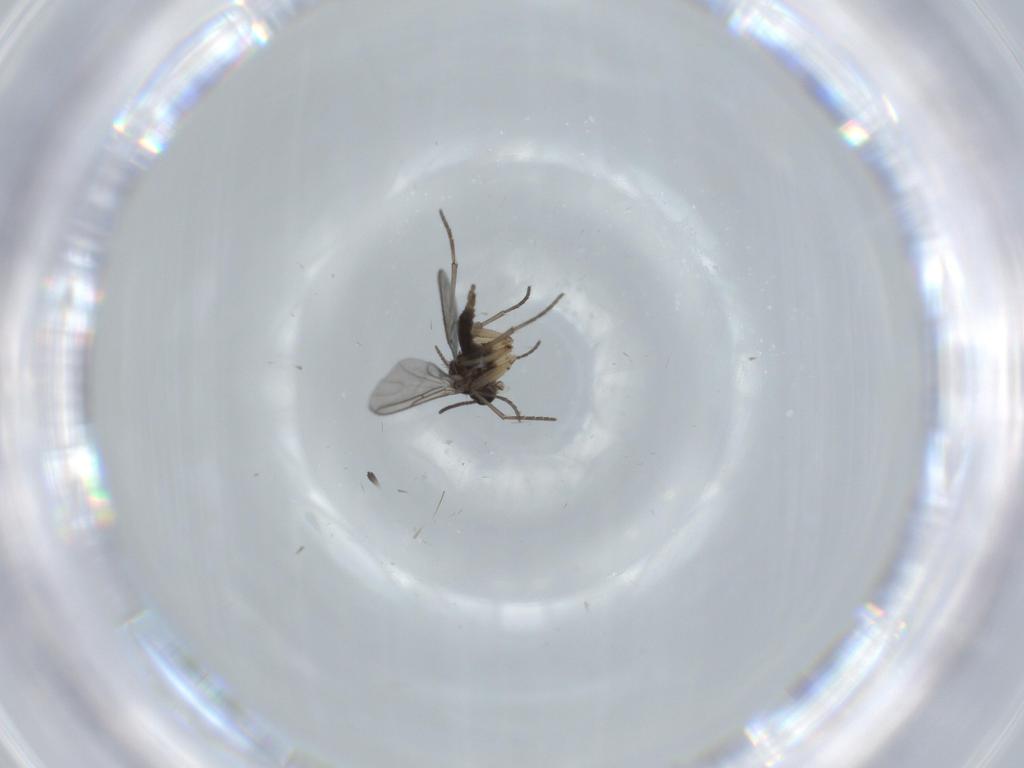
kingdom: Animalia
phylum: Arthropoda
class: Insecta
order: Diptera
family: Sciaridae
